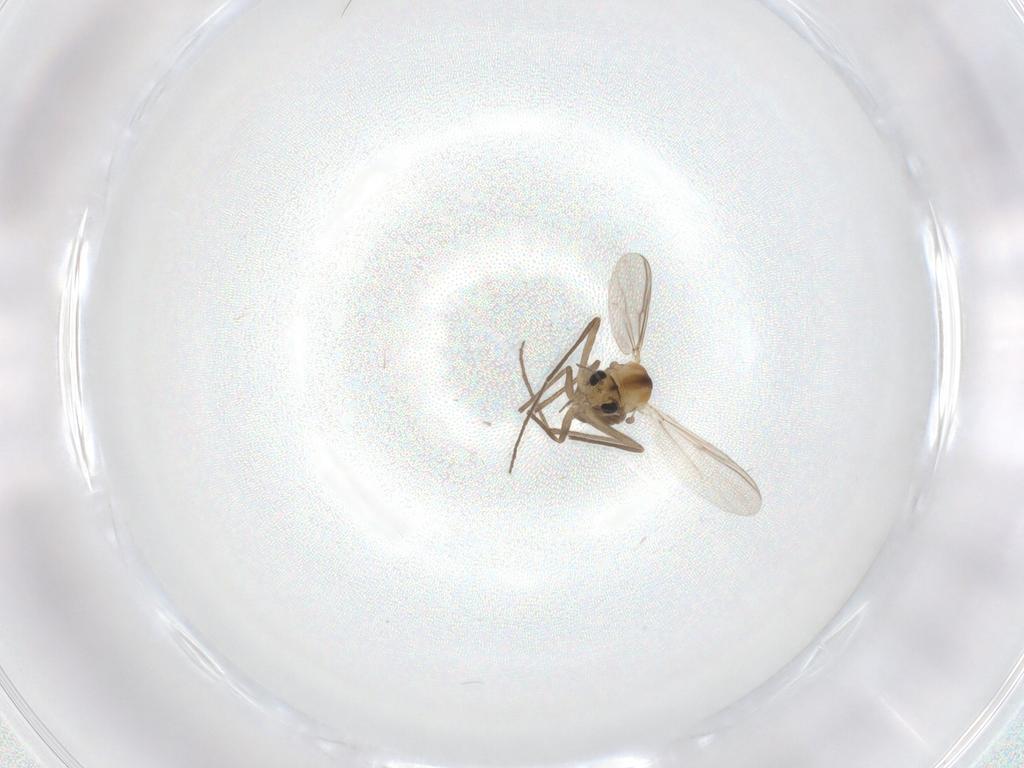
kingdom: Animalia
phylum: Arthropoda
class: Insecta
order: Diptera
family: Chironomidae
